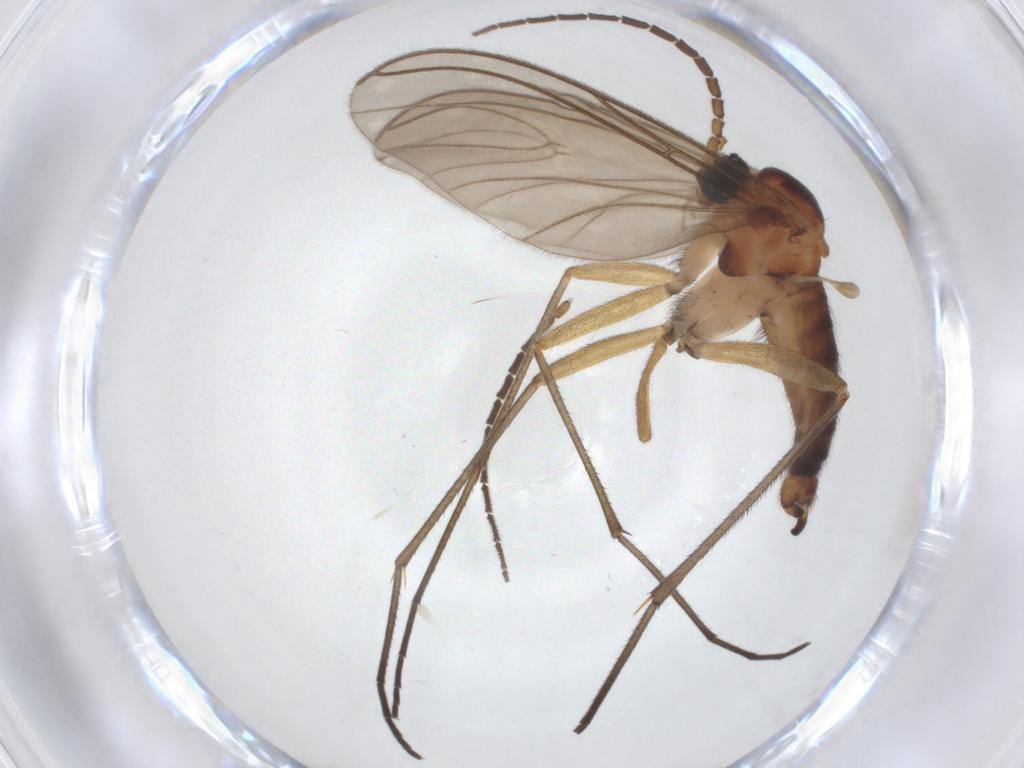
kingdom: Animalia
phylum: Arthropoda
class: Insecta
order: Diptera
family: Sciaridae
